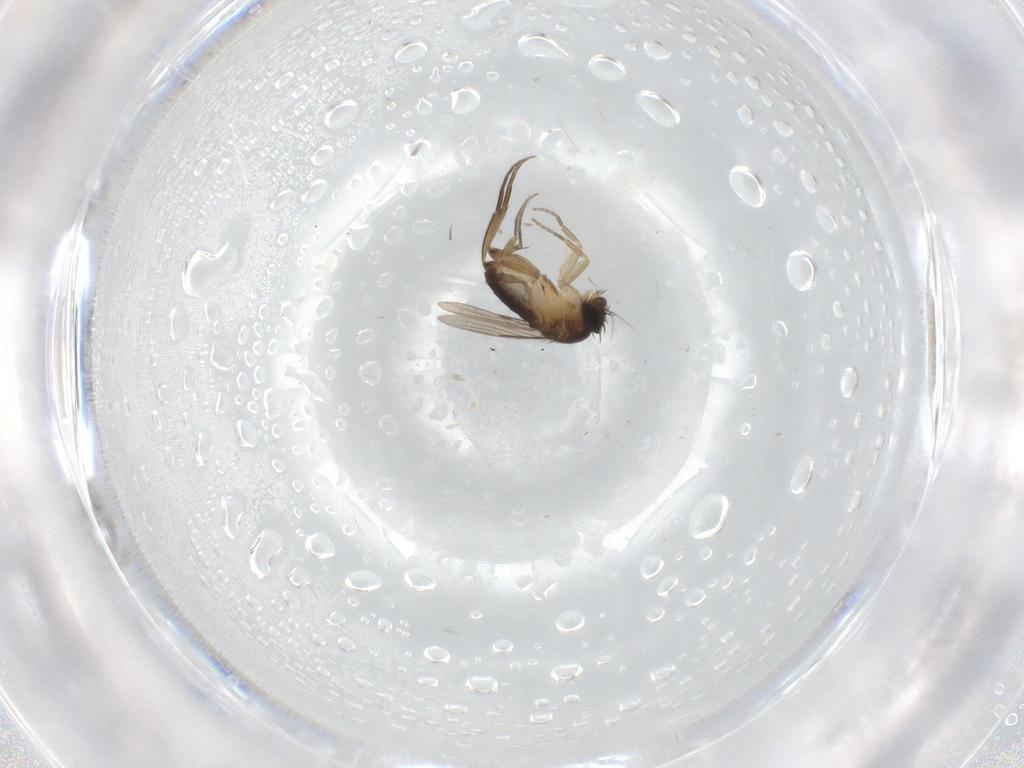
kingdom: Animalia
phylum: Arthropoda
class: Insecta
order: Diptera
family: Phoridae
